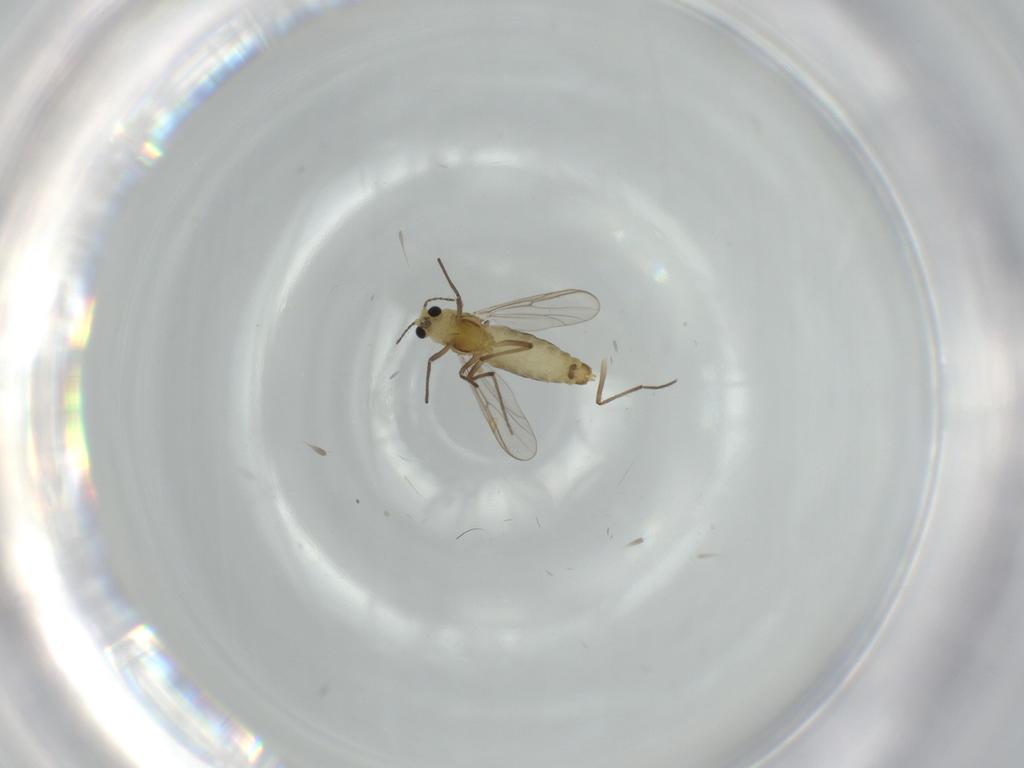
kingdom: Animalia
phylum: Arthropoda
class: Insecta
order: Diptera
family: Chironomidae
